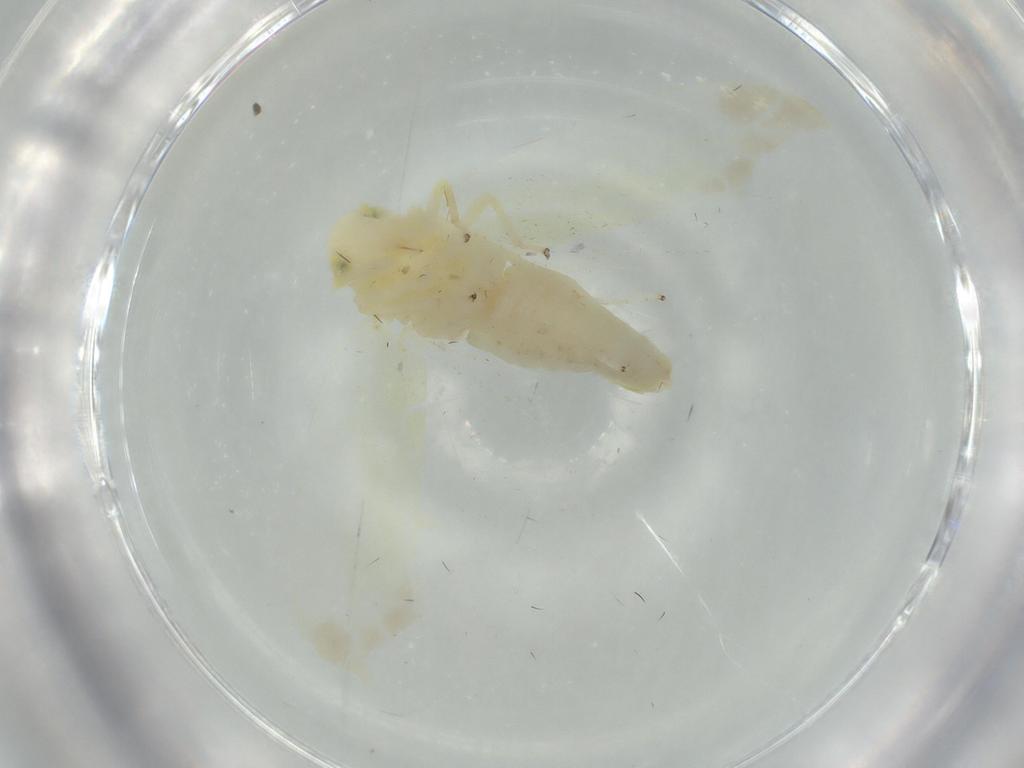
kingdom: Animalia
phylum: Arthropoda
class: Insecta
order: Hemiptera
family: Cicadellidae
